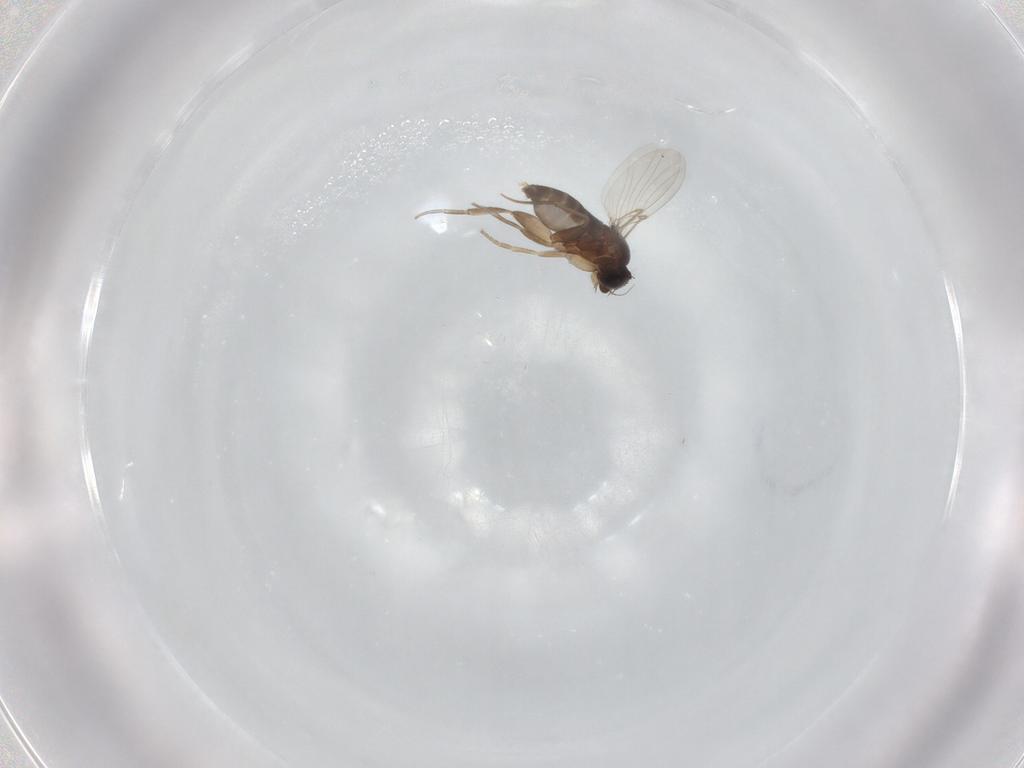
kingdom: Animalia
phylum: Arthropoda
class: Insecta
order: Diptera
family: Phoridae
